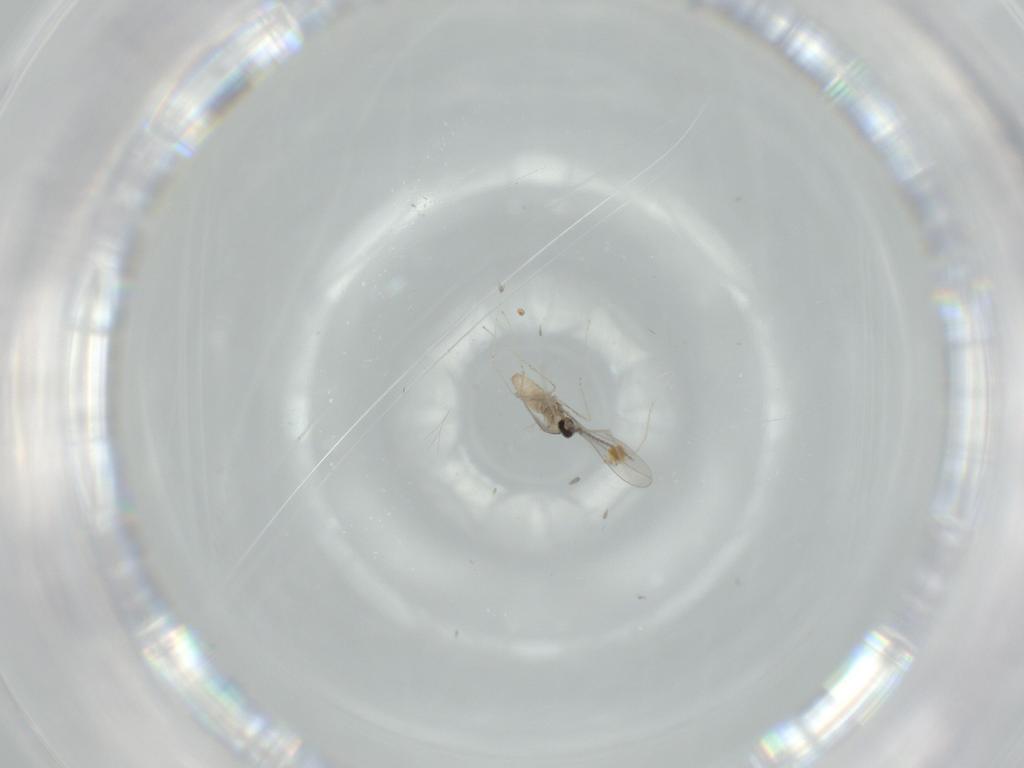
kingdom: Animalia
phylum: Arthropoda
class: Insecta
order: Diptera
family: Cecidomyiidae
